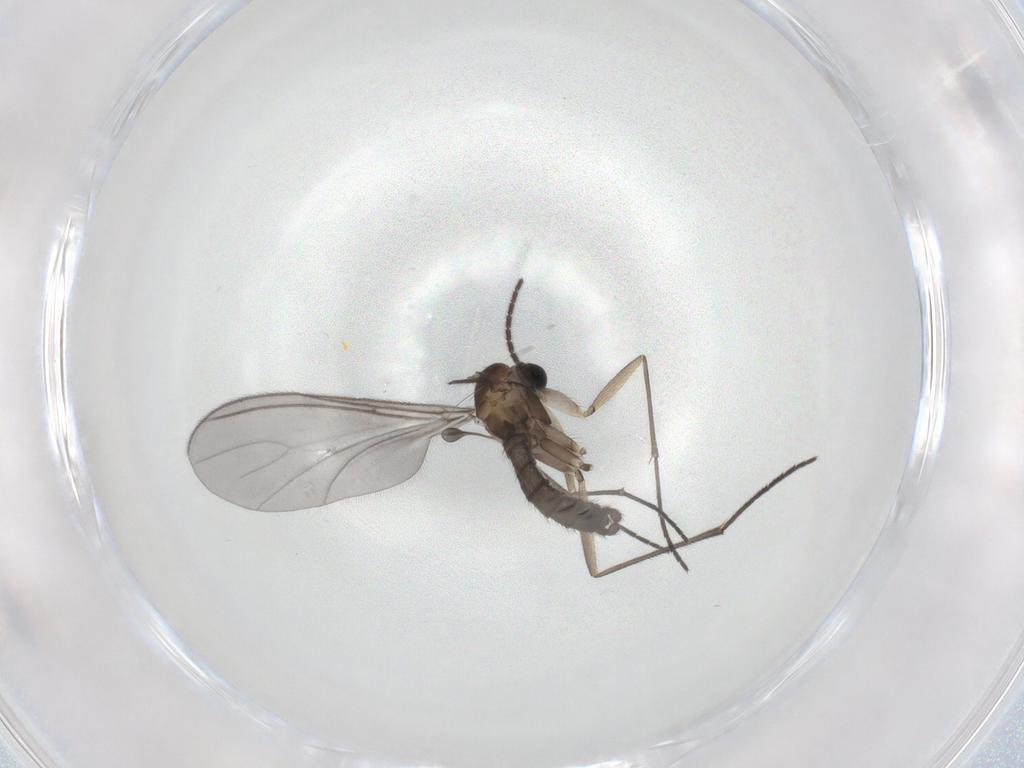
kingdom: Animalia
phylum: Arthropoda
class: Insecta
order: Diptera
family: Sciaridae
